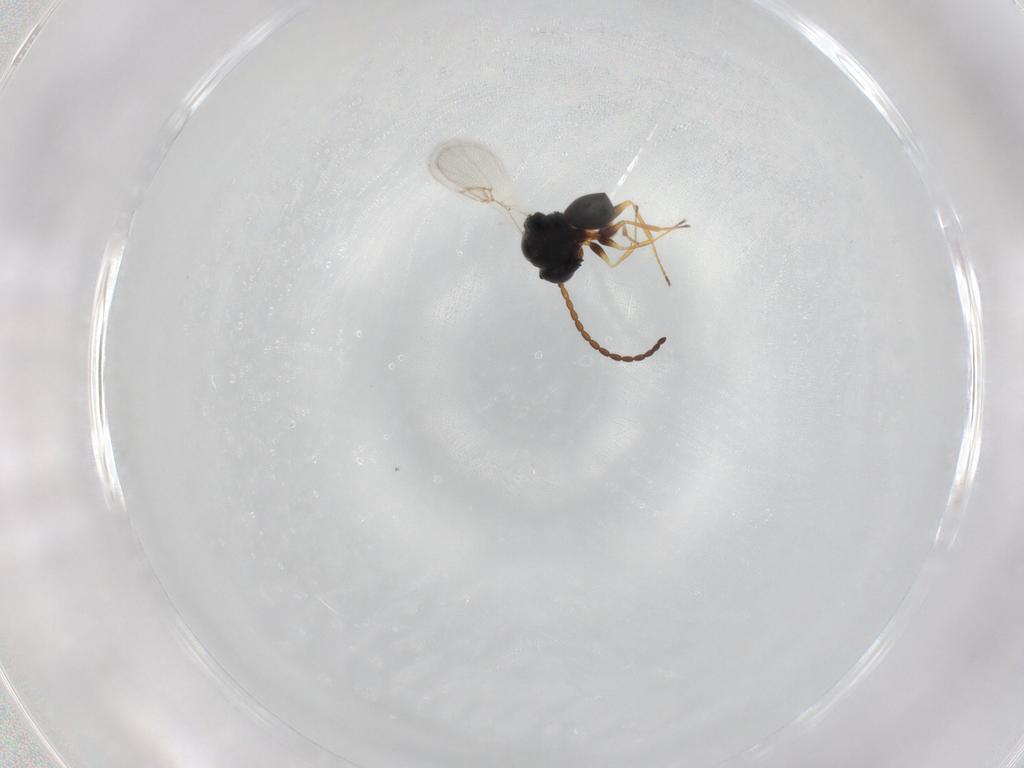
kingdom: Animalia
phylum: Arthropoda
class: Insecta
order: Hymenoptera
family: Figitidae
